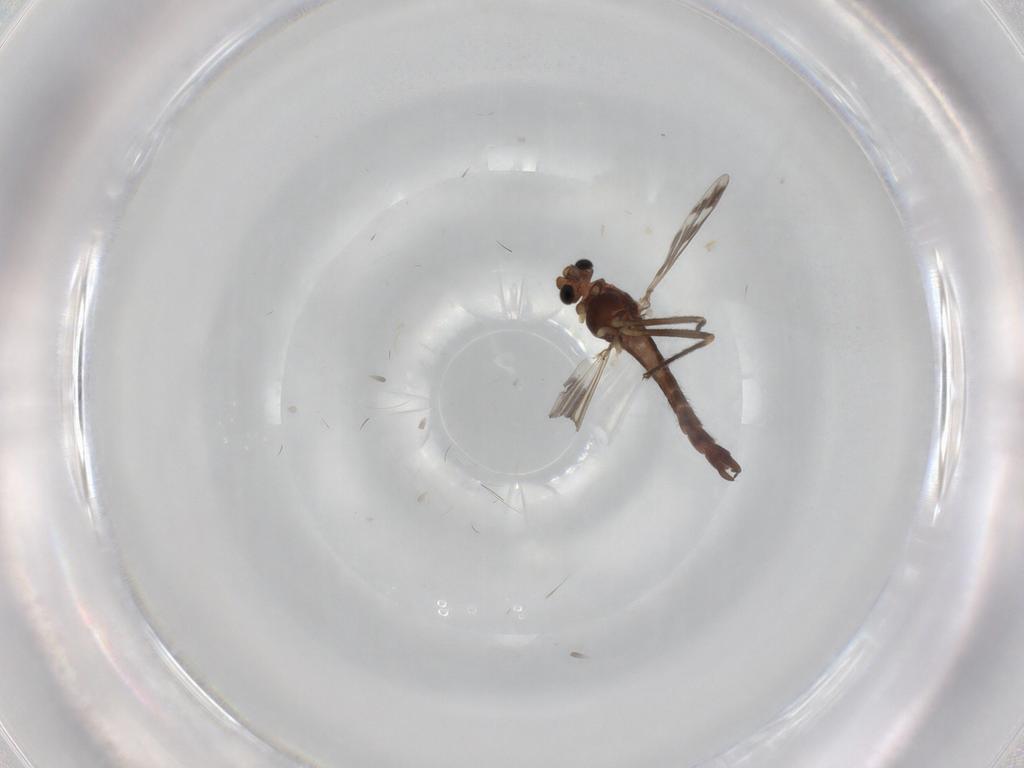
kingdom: Animalia
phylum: Arthropoda
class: Insecta
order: Diptera
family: Chironomidae
